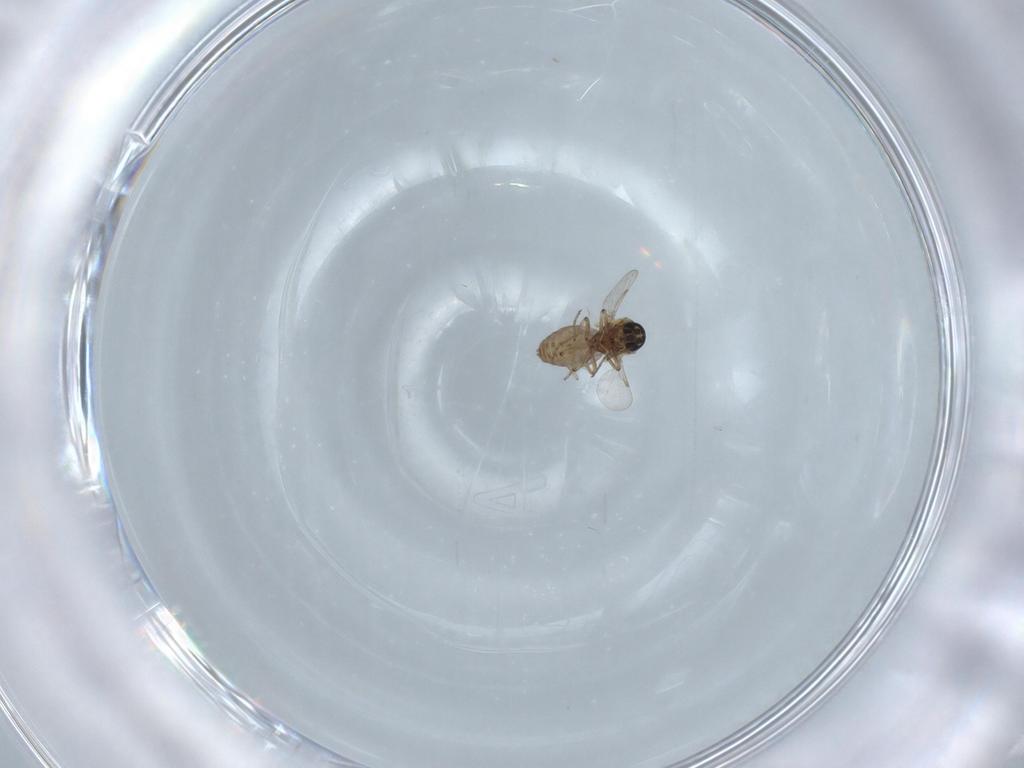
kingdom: Animalia
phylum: Arthropoda
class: Insecta
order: Diptera
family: Ceratopogonidae
